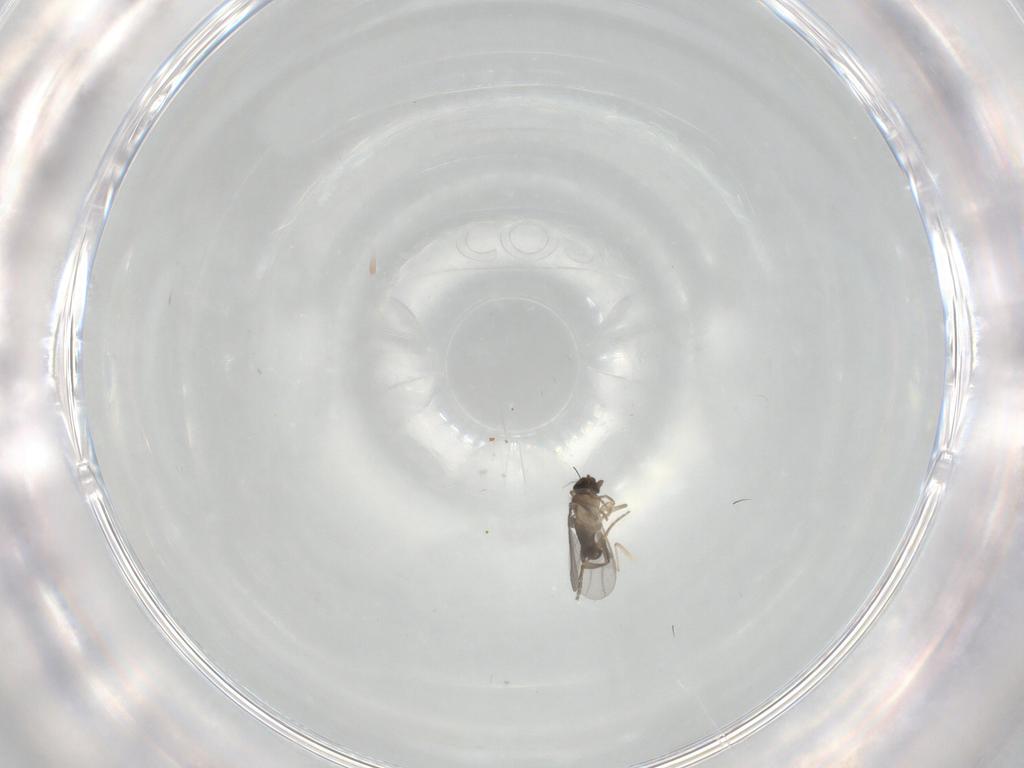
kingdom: Animalia
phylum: Arthropoda
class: Insecta
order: Diptera
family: Chironomidae
